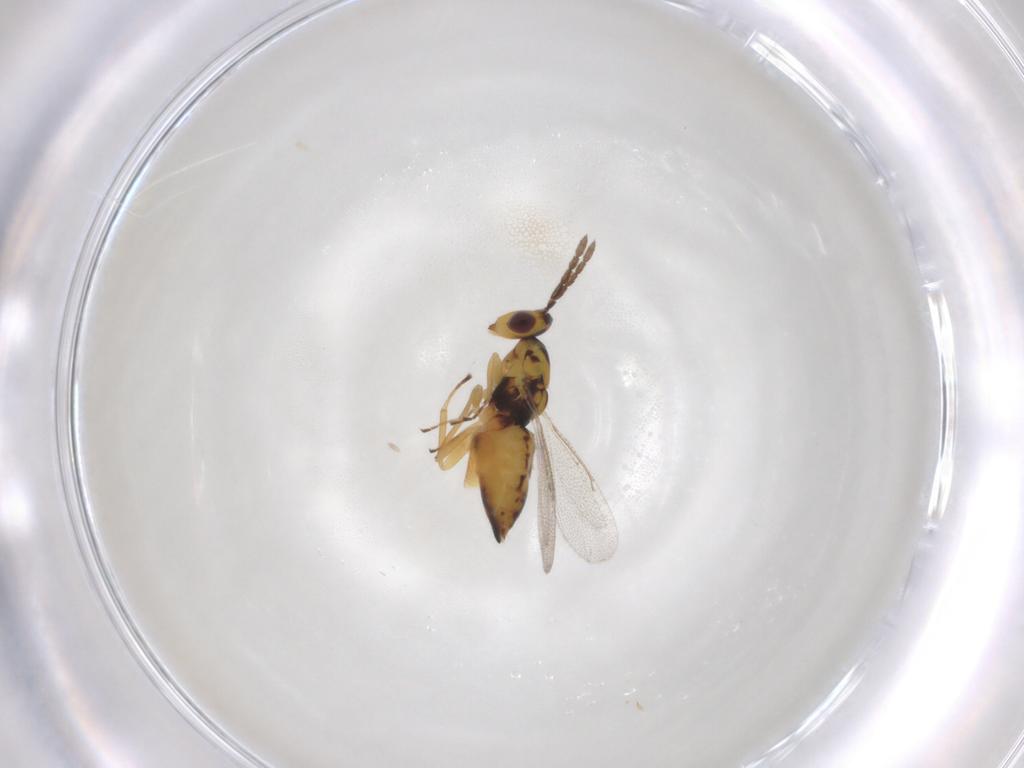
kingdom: Animalia
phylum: Arthropoda
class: Insecta
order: Hymenoptera
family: Eulophidae
